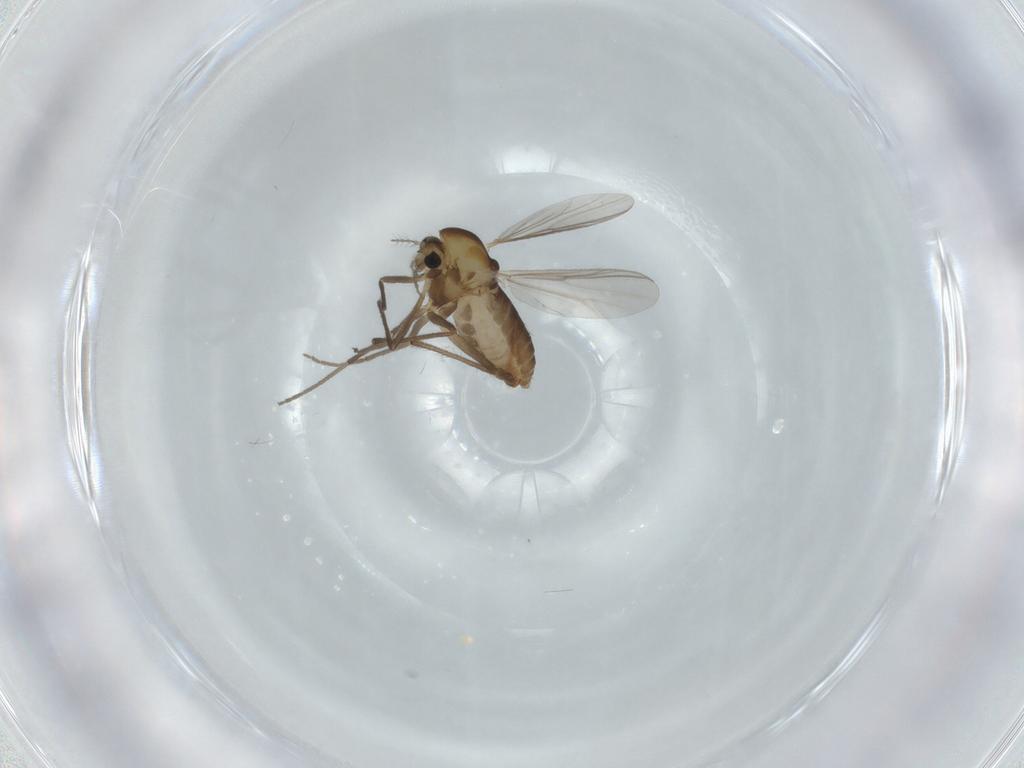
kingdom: Animalia
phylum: Arthropoda
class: Insecta
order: Diptera
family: Chironomidae
